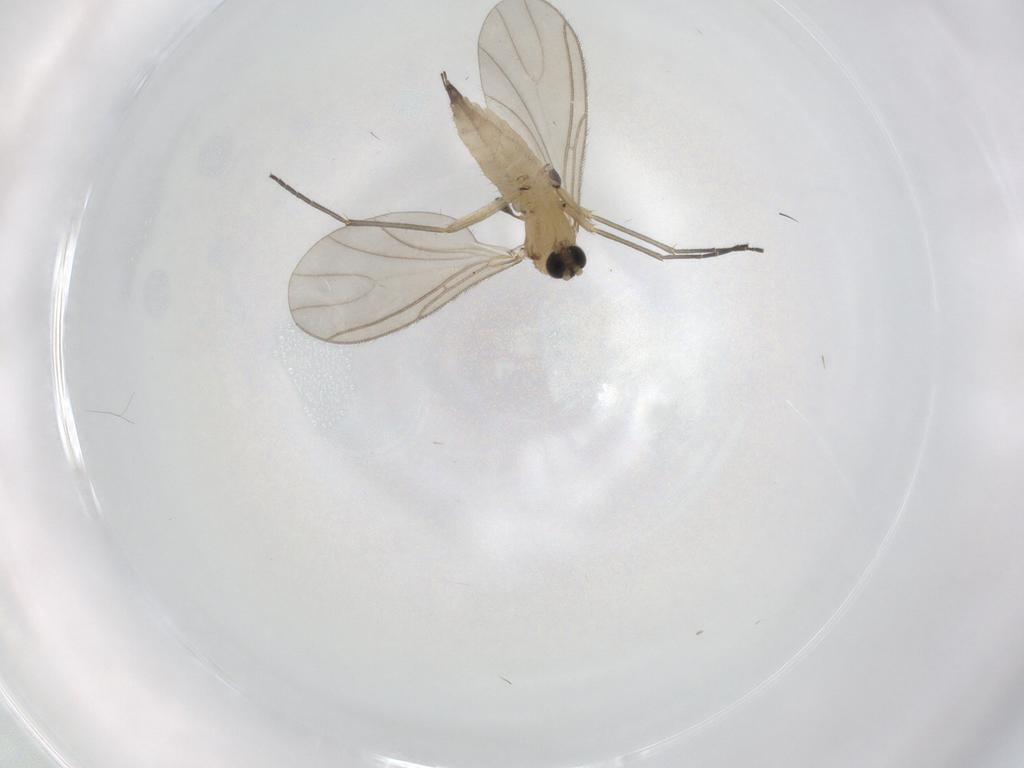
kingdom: Animalia
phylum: Arthropoda
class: Insecta
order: Diptera
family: Sciaridae
